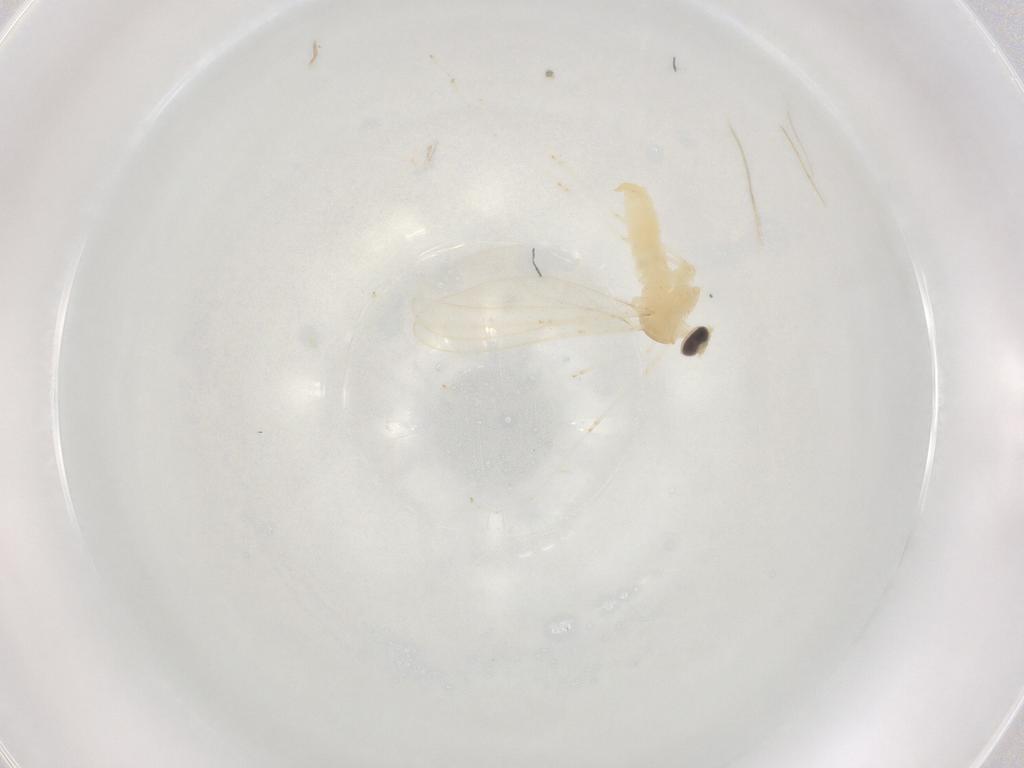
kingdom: Animalia
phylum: Arthropoda
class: Insecta
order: Diptera
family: Cecidomyiidae
